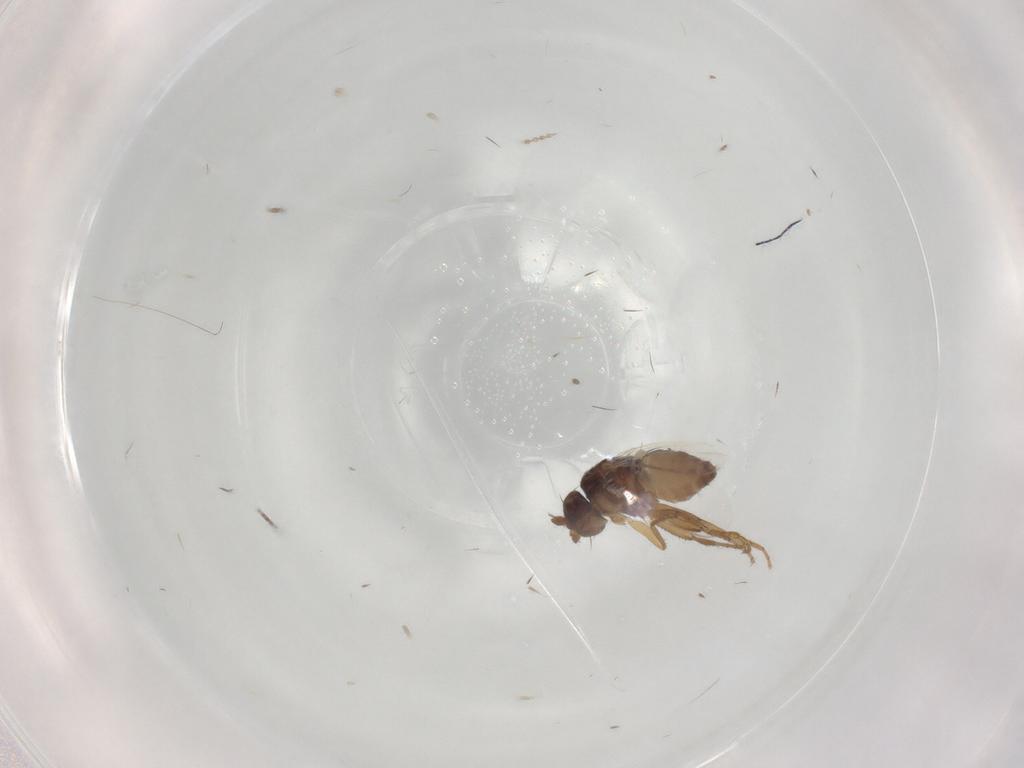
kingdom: Animalia
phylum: Arthropoda
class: Insecta
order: Diptera
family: Sphaeroceridae
